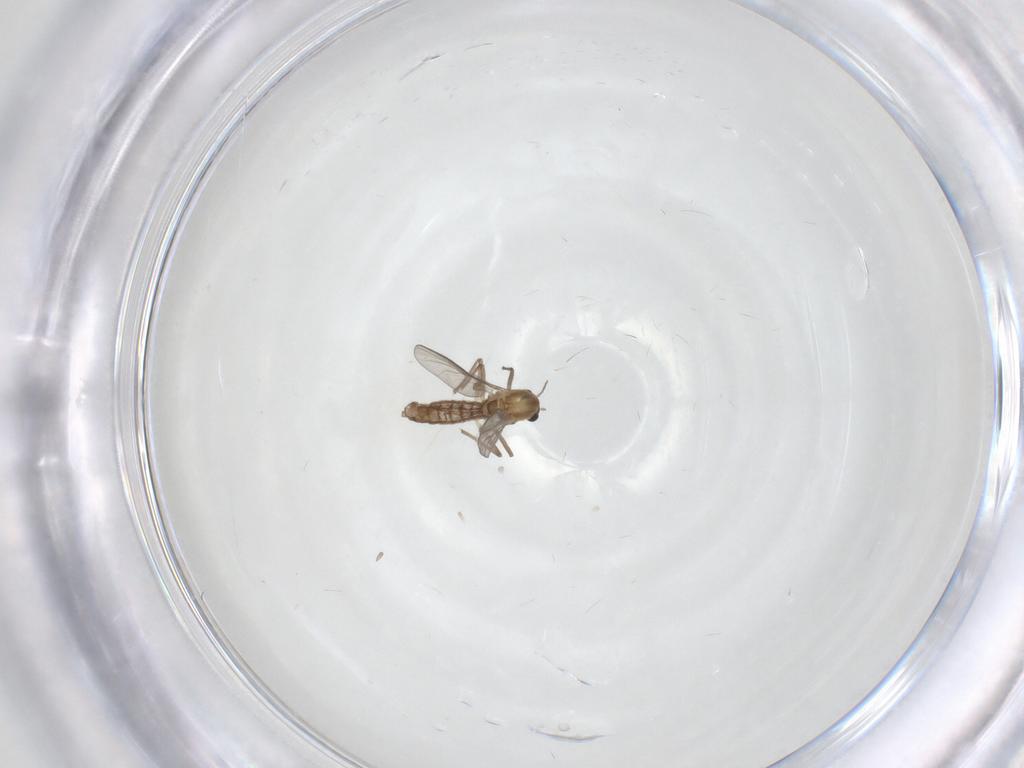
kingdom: Animalia
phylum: Arthropoda
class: Insecta
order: Diptera
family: Chironomidae
